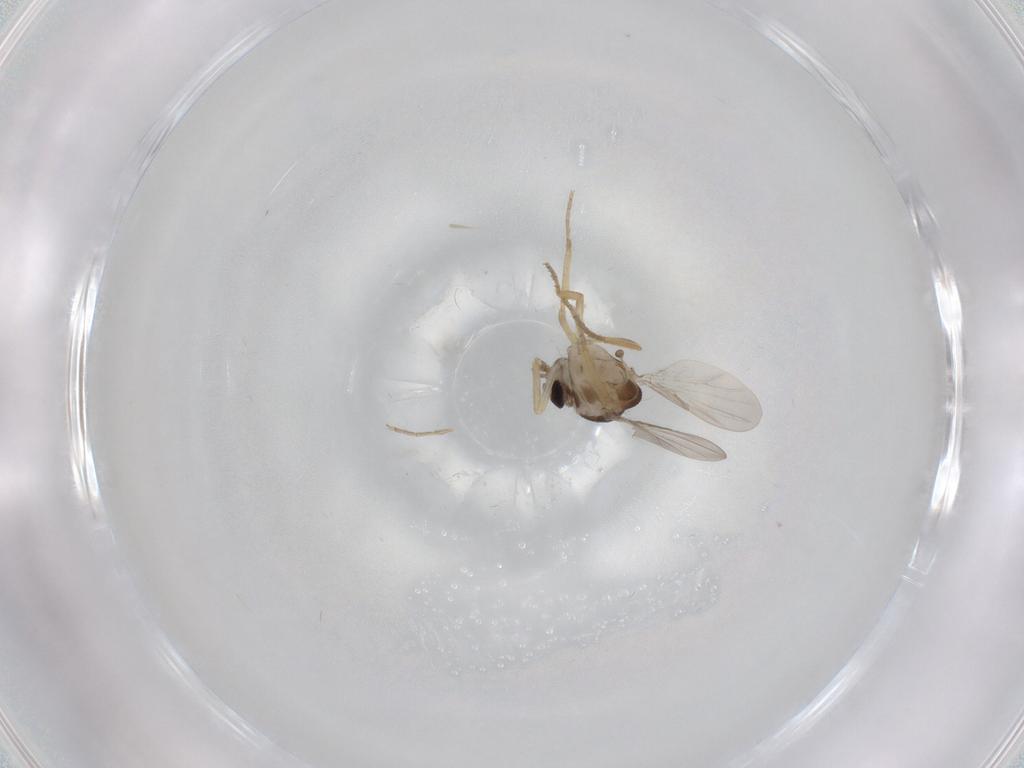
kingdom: Animalia
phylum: Arthropoda
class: Insecta
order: Diptera
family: Ceratopogonidae
